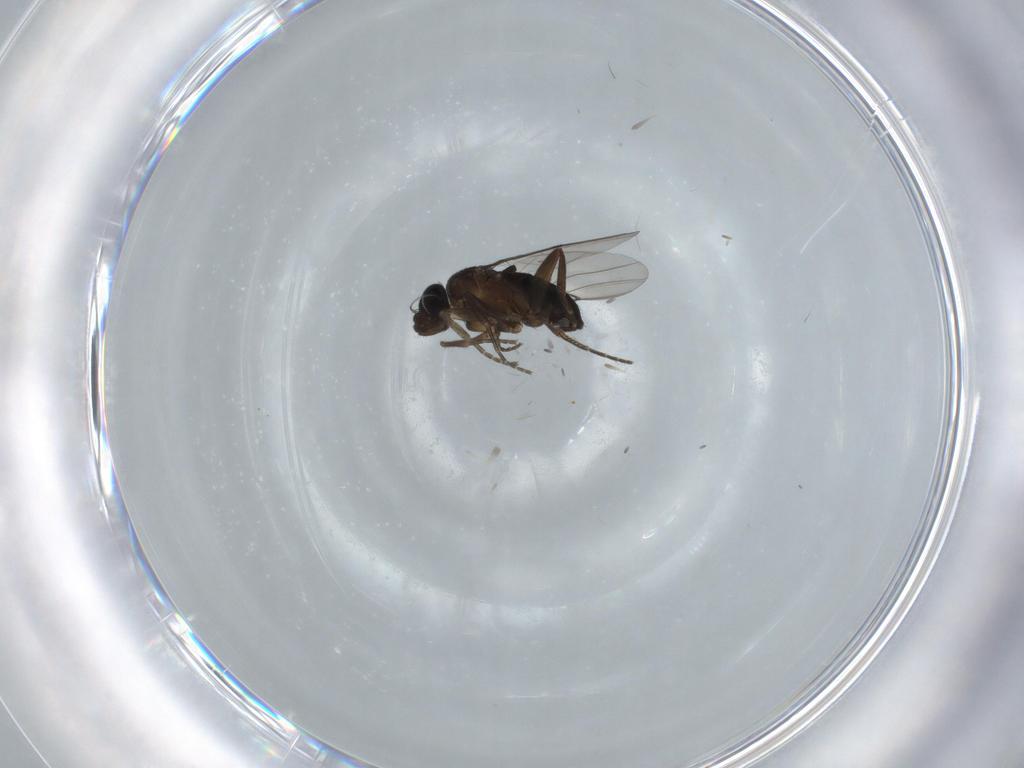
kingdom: Animalia
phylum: Arthropoda
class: Insecta
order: Diptera
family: Phoridae
